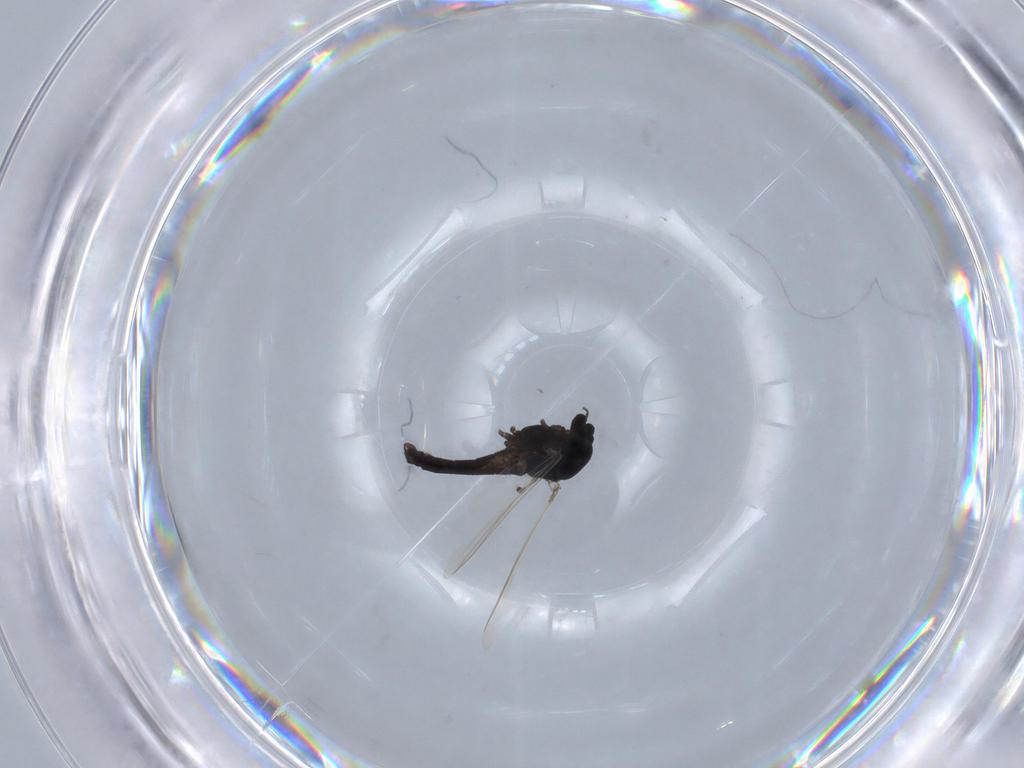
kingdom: Animalia
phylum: Arthropoda
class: Insecta
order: Diptera
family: Chironomidae
